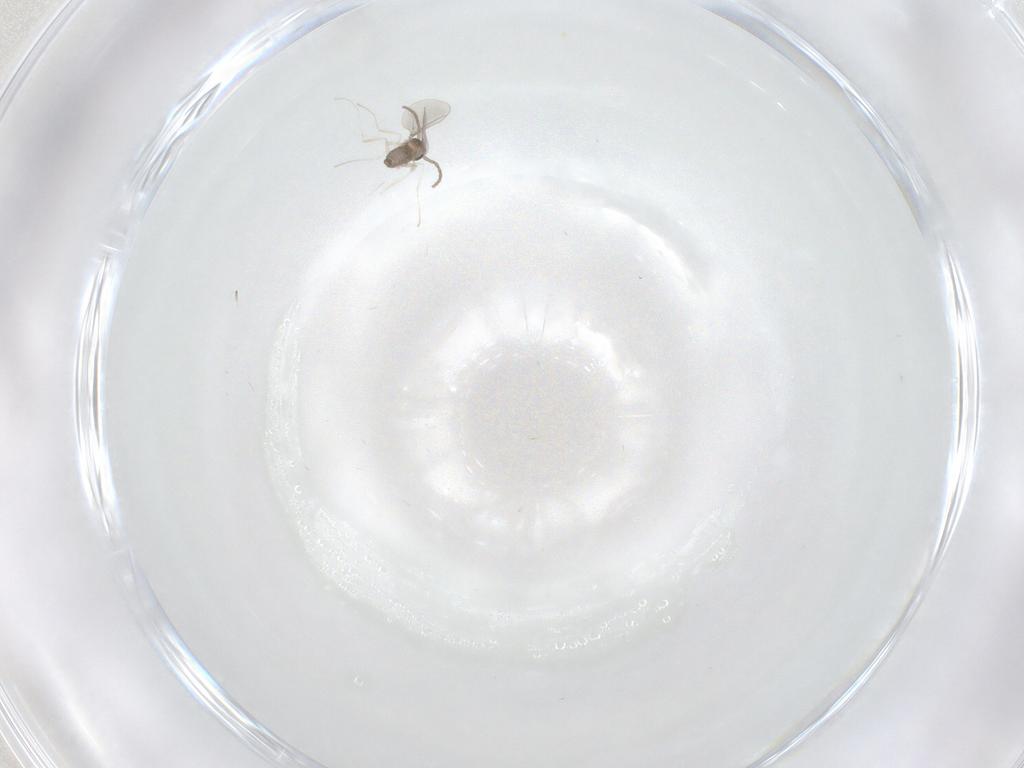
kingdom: Animalia
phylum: Arthropoda
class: Insecta
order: Diptera
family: Cecidomyiidae
